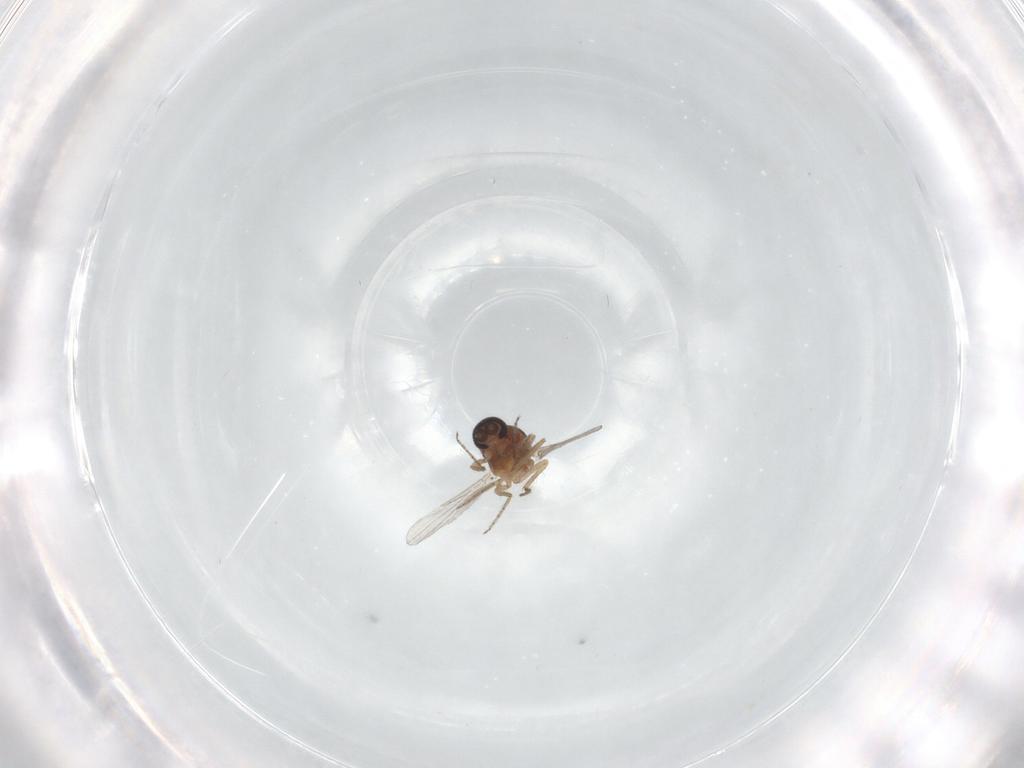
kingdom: Animalia
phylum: Arthropoda
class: Insecta
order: Diptera
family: Ceratopogonidae
